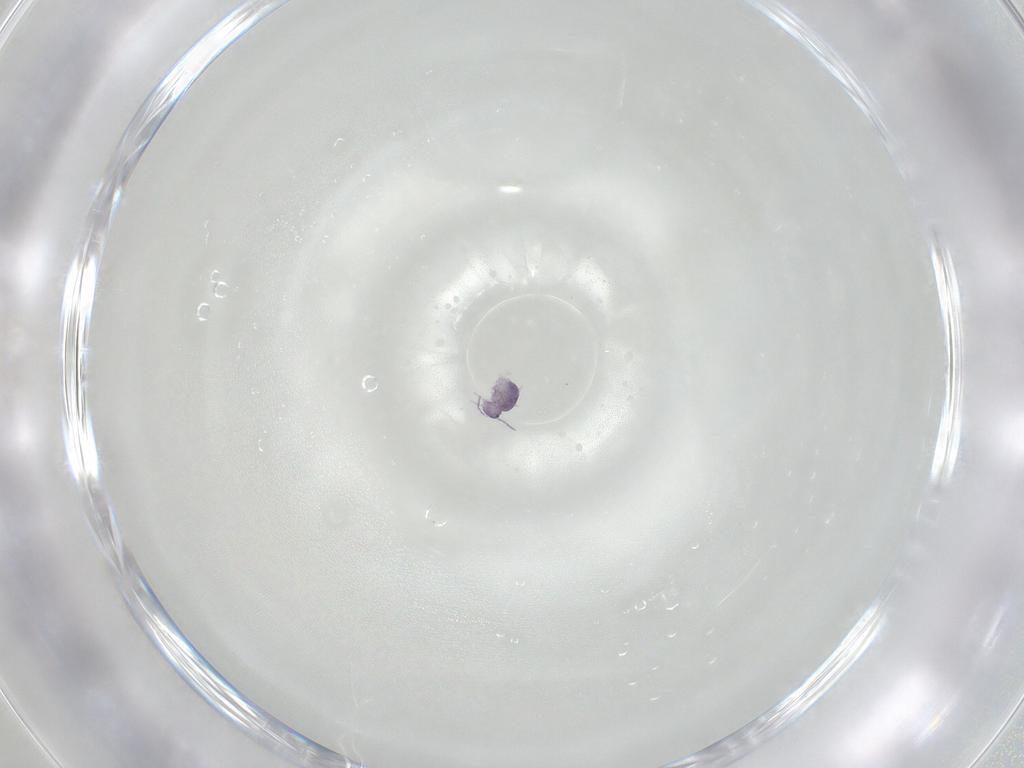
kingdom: Animalia
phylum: Arthropoda
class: Collembola
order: Symphypleona
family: Sminthurididae
